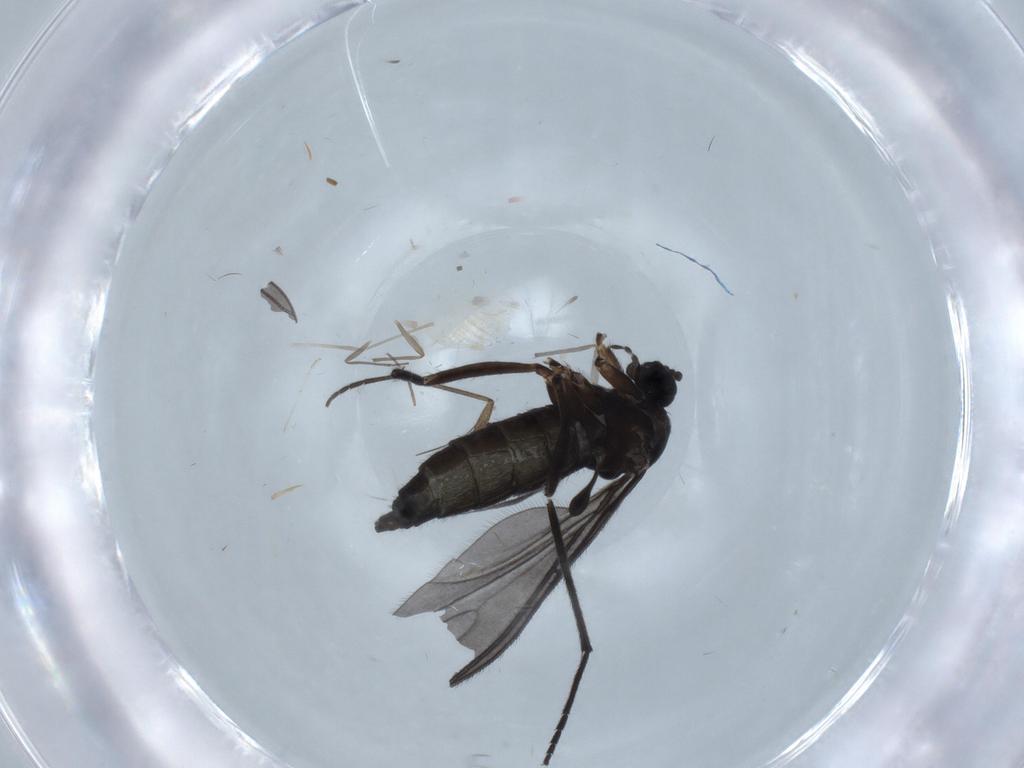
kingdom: Animalia
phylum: Arthropoda
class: Insecta
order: Diptera
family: Sciaridae
